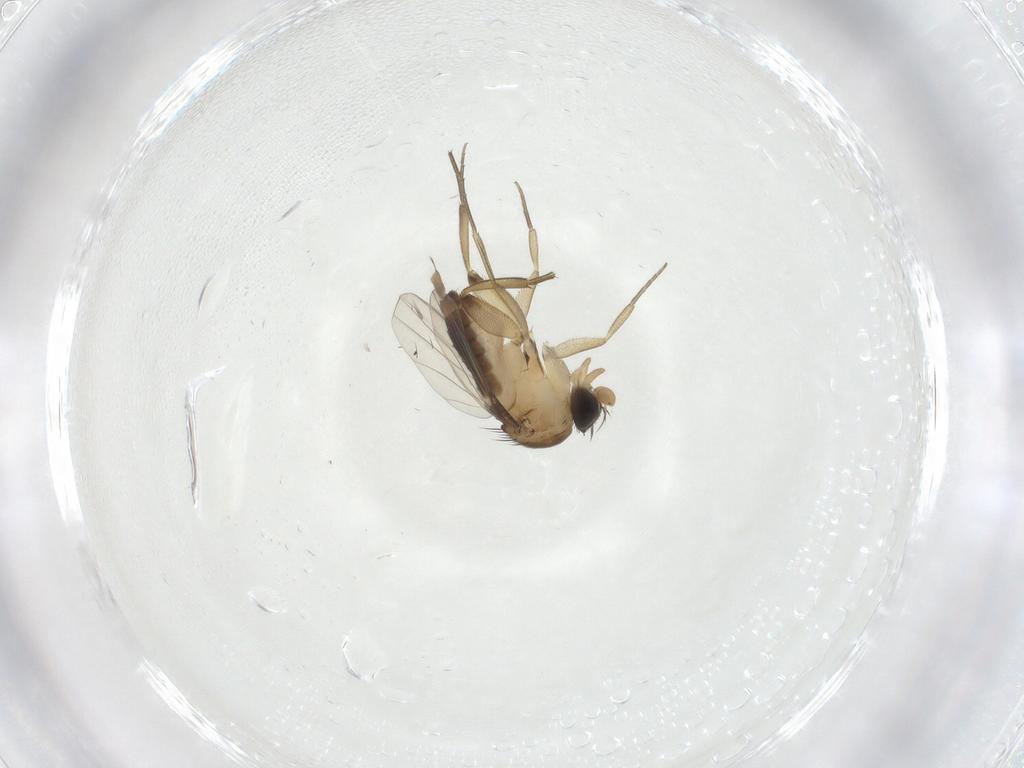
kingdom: Animalia
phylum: Arthropoda
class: Insecta
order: Diptera
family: Phoridae
